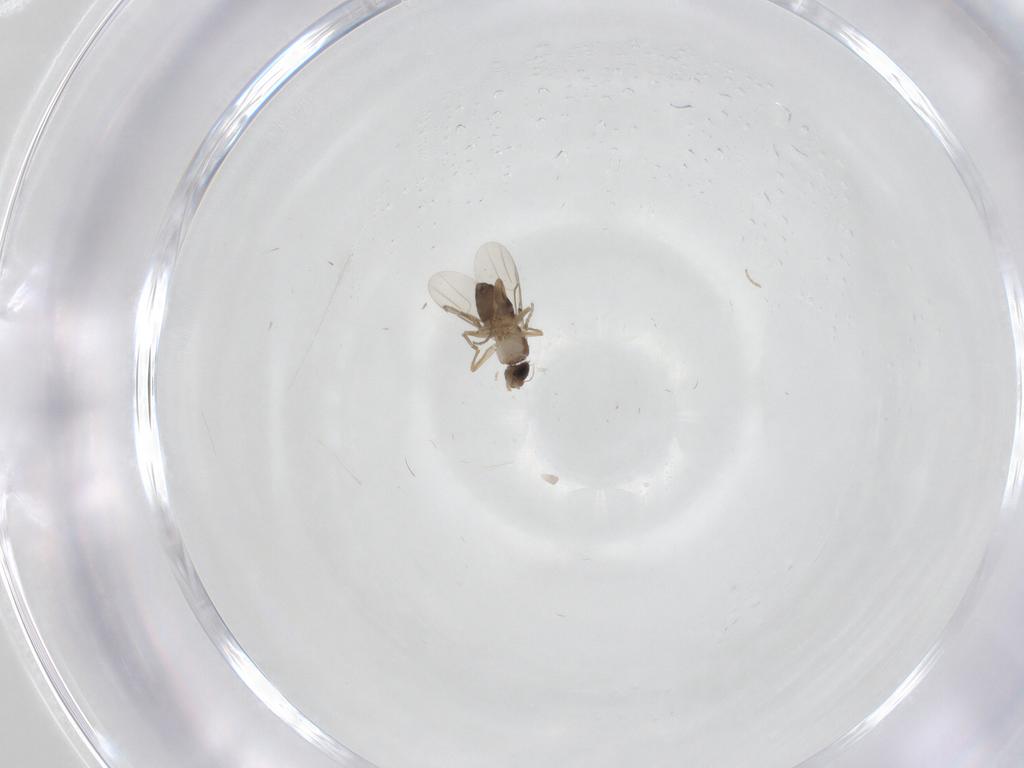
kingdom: Animalia
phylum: Arthropoda
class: Insecta
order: Diptera
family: Phoridae
